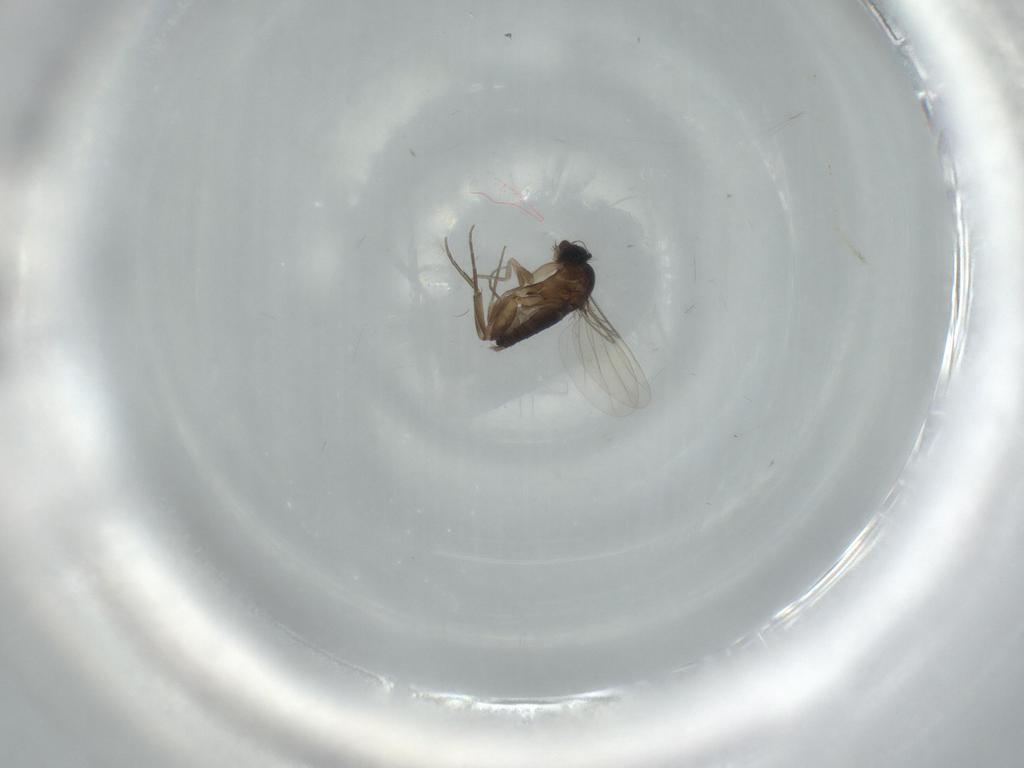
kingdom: Animalia
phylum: Arthropoda
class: Insecta
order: Diptera
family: Phoridae
